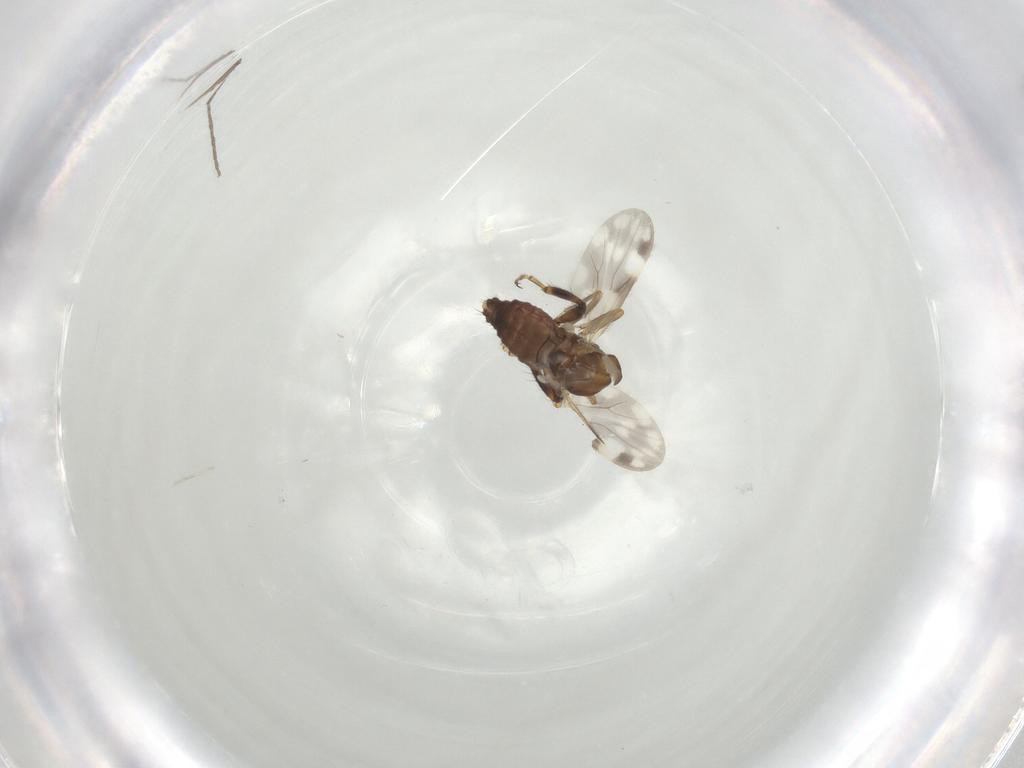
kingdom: Animalia
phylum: Arthropoda
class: Insecta
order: Diptera
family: Ceratopogonidae
